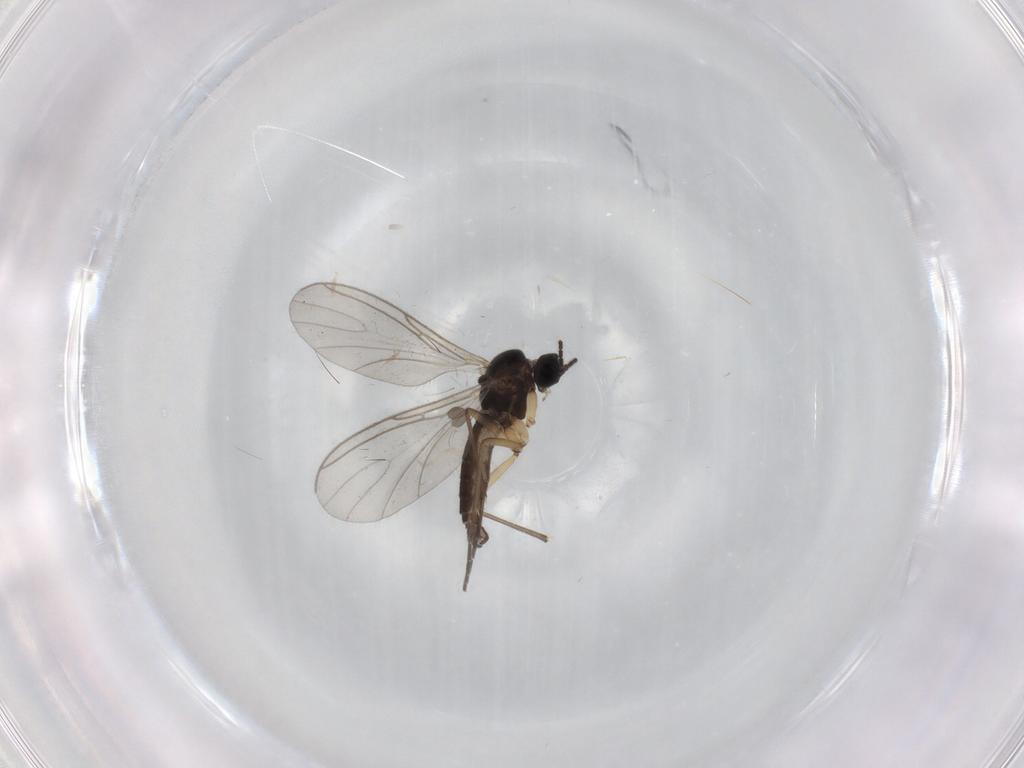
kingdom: Animalia
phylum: Arthropoda
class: Insecta
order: Diptera
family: Sciaridae
